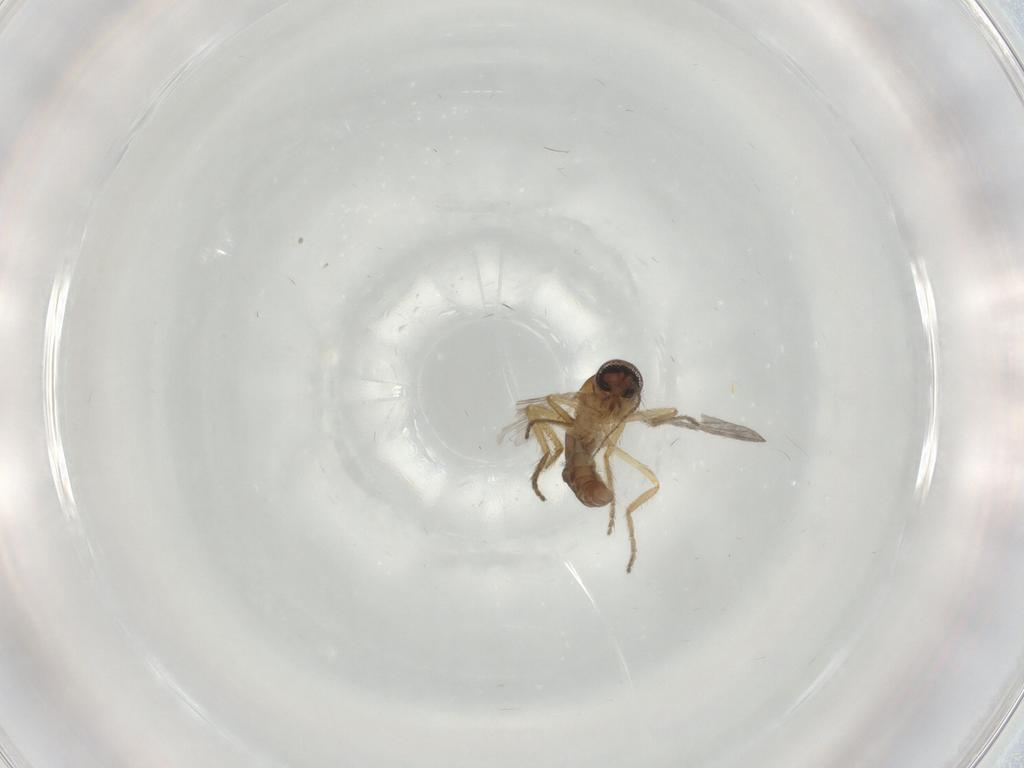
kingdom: Animalia
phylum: Arthropoda
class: Insecta
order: Diptera
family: Ceratopogonidae
